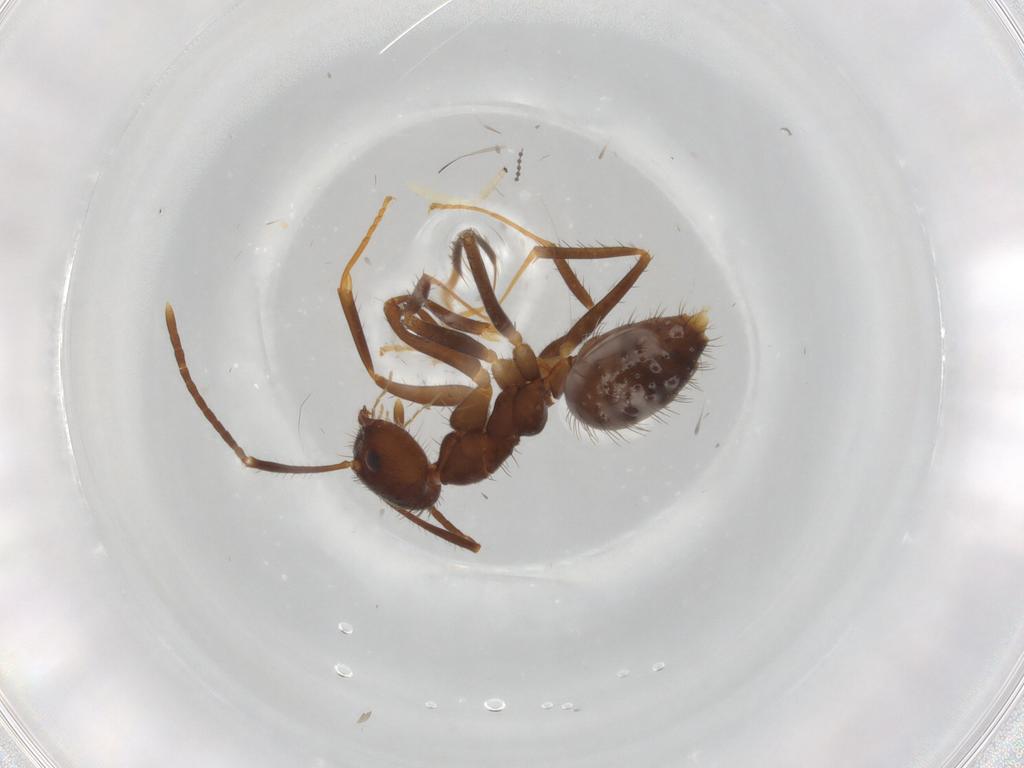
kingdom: Animalia
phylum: Arthropoda
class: Insecta
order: Hymenoptera
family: Formicidae
